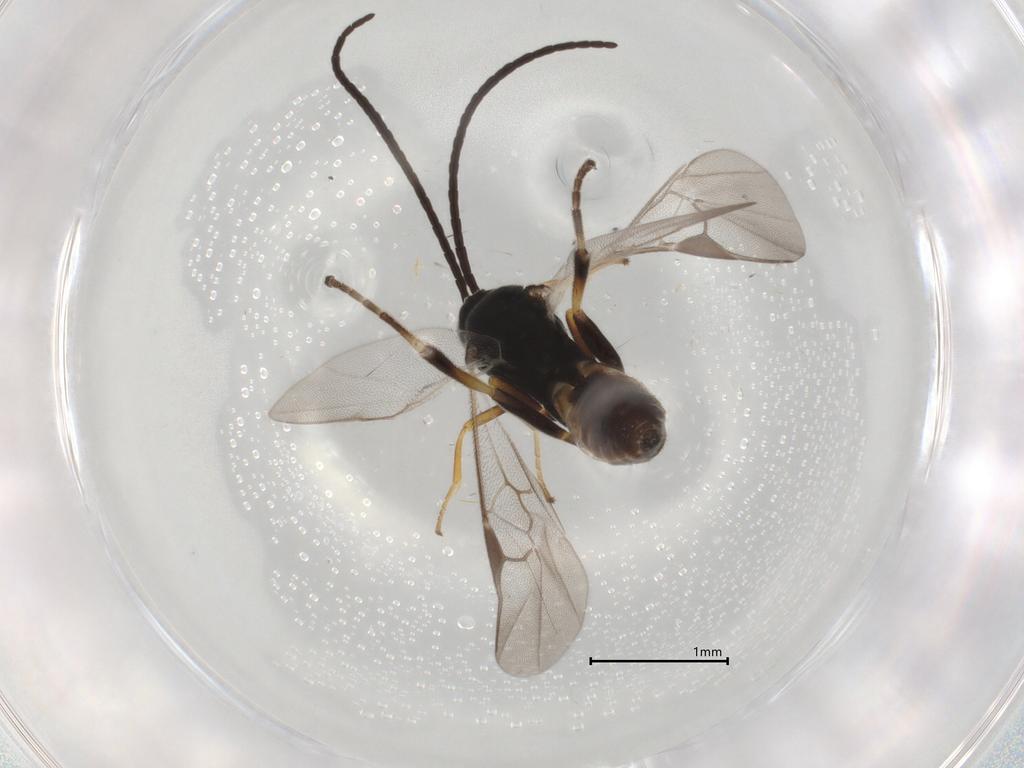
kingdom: Animalia
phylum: Arthropoda
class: Insecta
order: Hymenoptera
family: Braconidae
